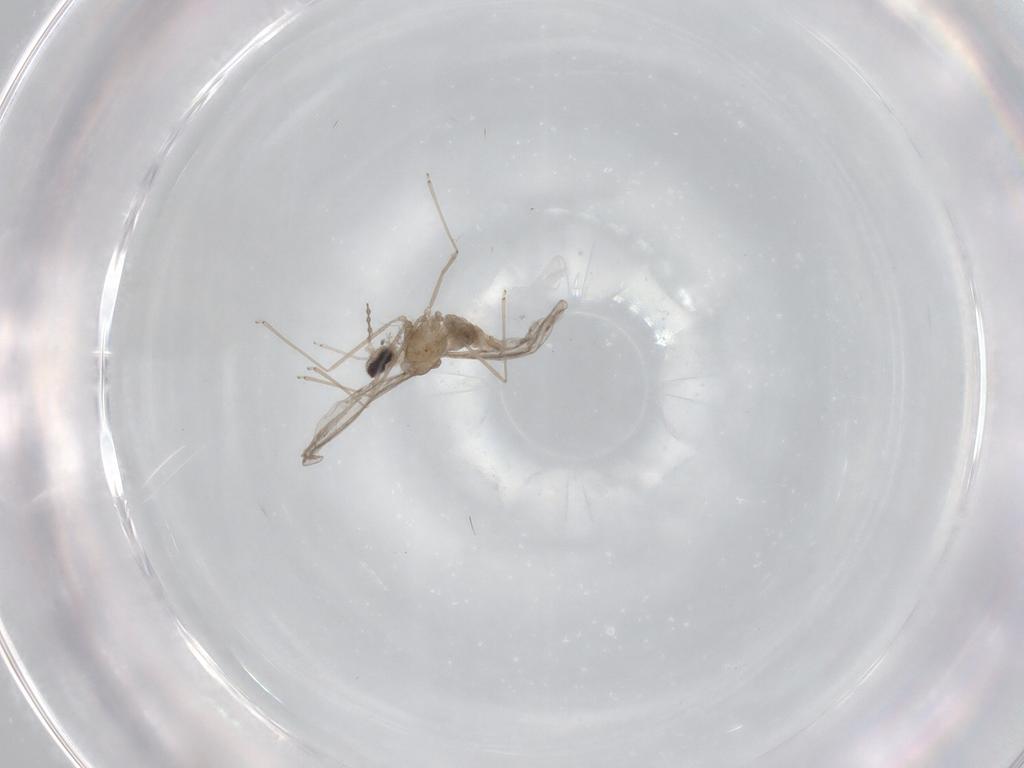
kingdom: Animalia
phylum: Arthropoda
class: Insecta
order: Diptera
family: Cecidomyiidae
